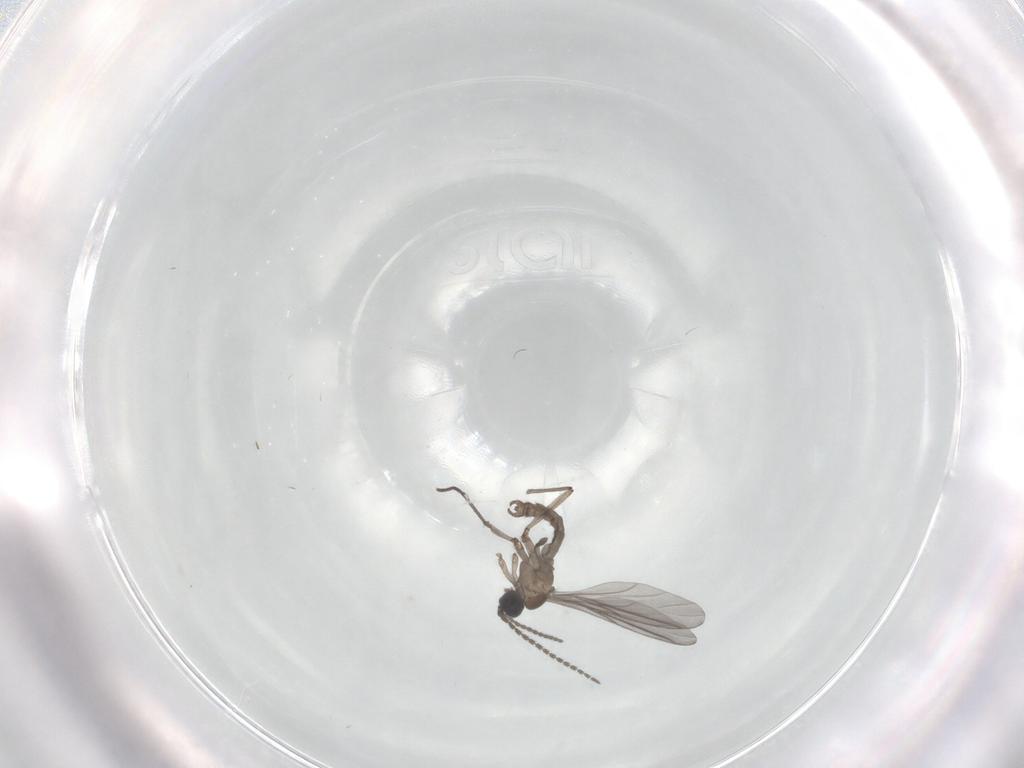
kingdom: Animalia
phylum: Arthropoda
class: Insecta
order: Diptera
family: Sciaridae
